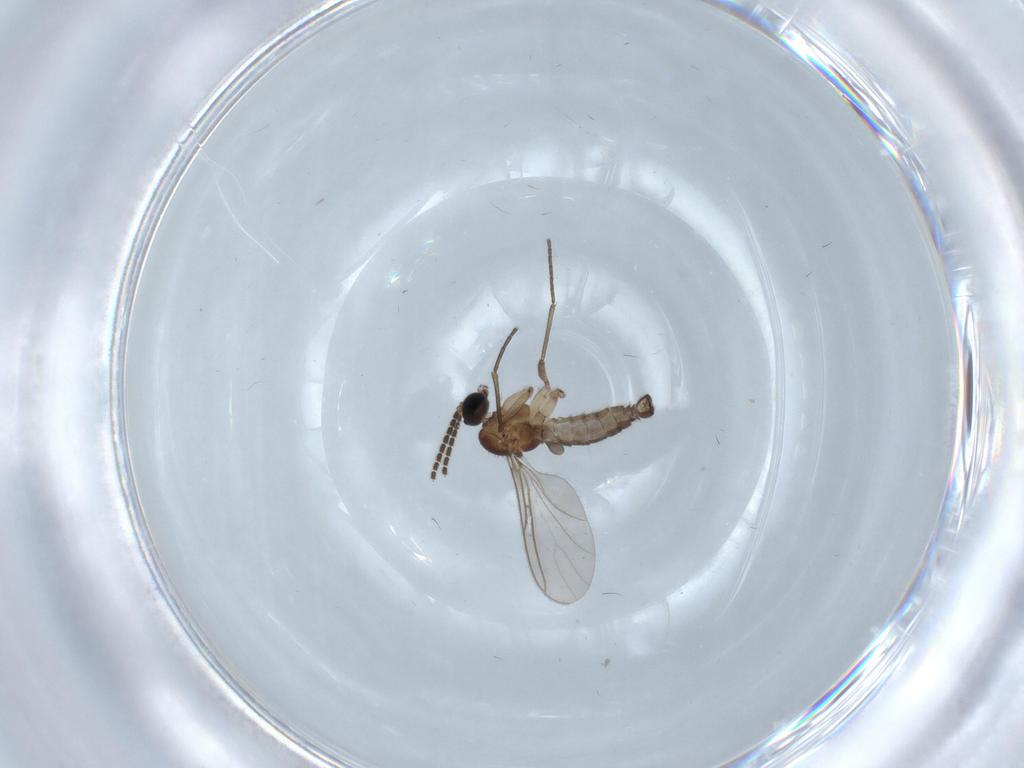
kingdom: Animalia
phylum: Arthropoda
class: Insecta
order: Diptera
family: Sciaridae
